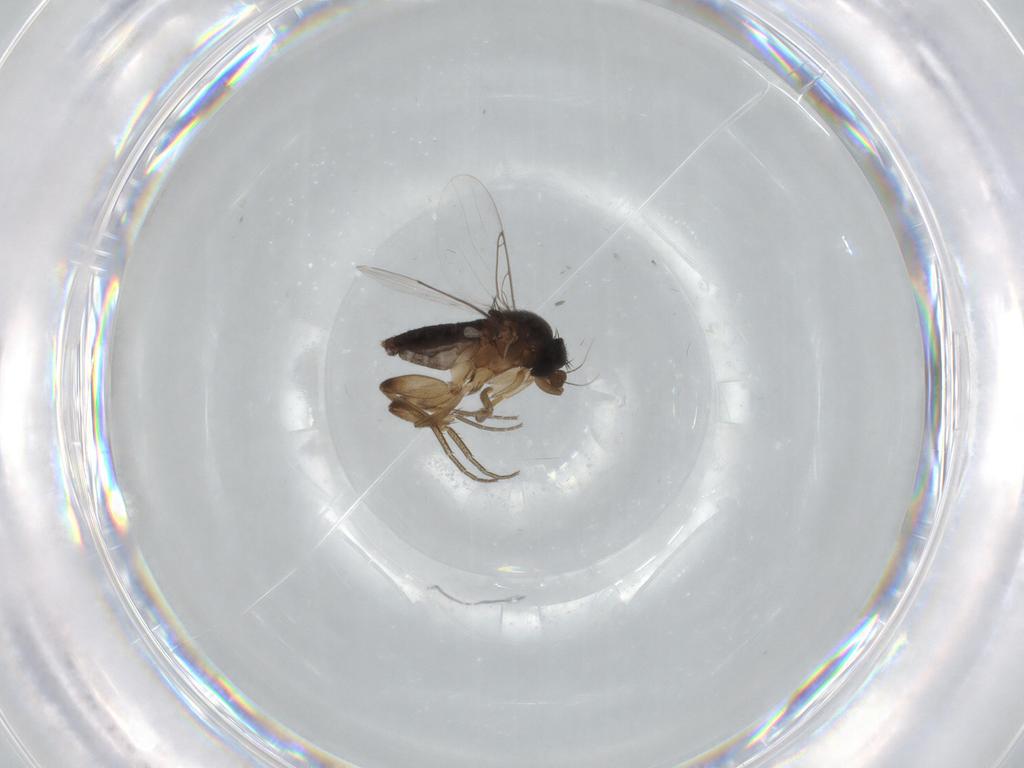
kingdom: Animalia
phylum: Arthropoda
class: Insecta
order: Diptera
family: Phoridae
